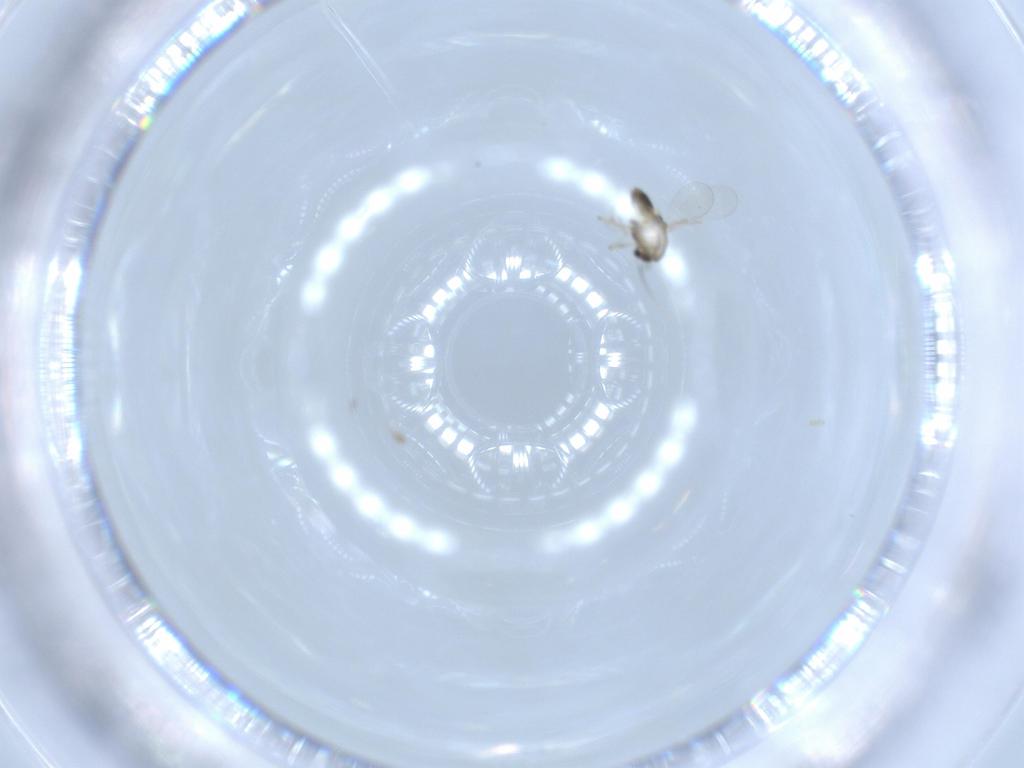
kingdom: Animalia
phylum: Arthropoda
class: Insecta
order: Diptera
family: Chironomidae
